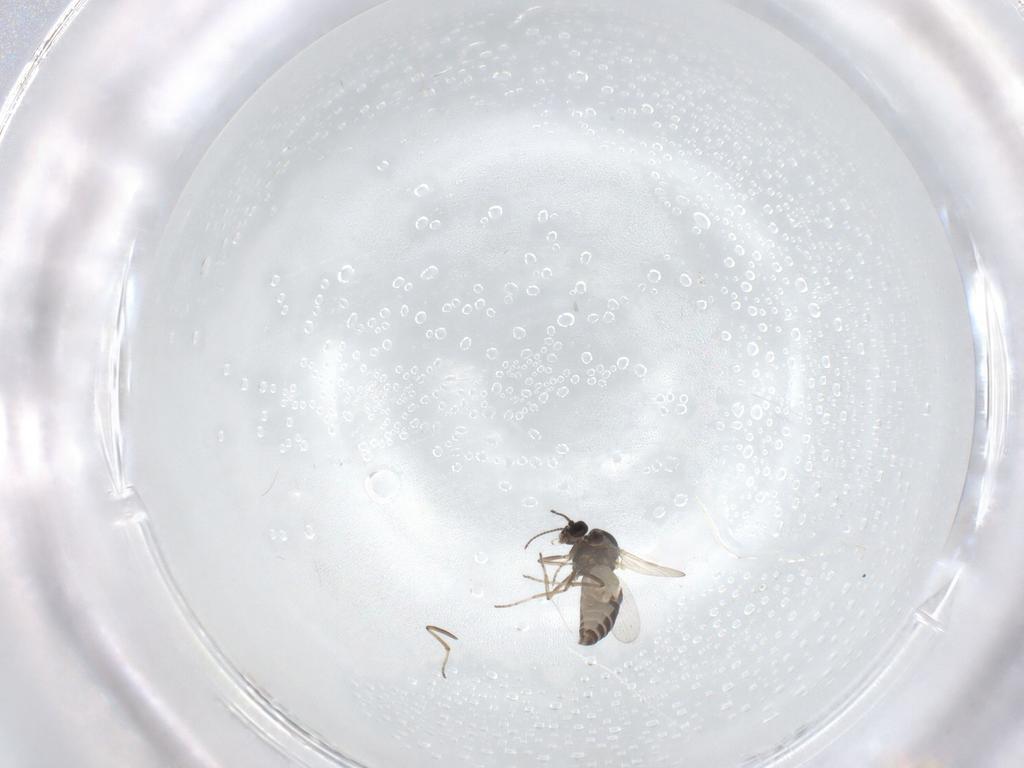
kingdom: Animalia
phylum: Arthropoda
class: Insecta
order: Diptera
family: Ceratopogonidae
